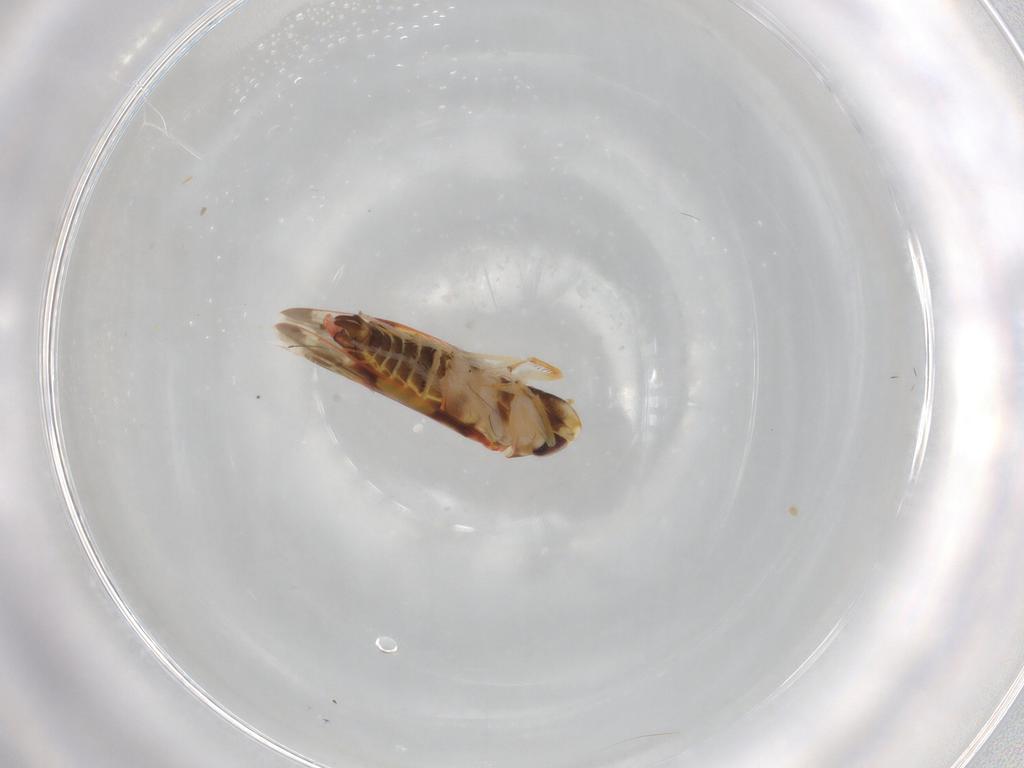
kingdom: Animalia
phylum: Arthropoda
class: Insecta
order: Hemiptera
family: Cicadellidae
